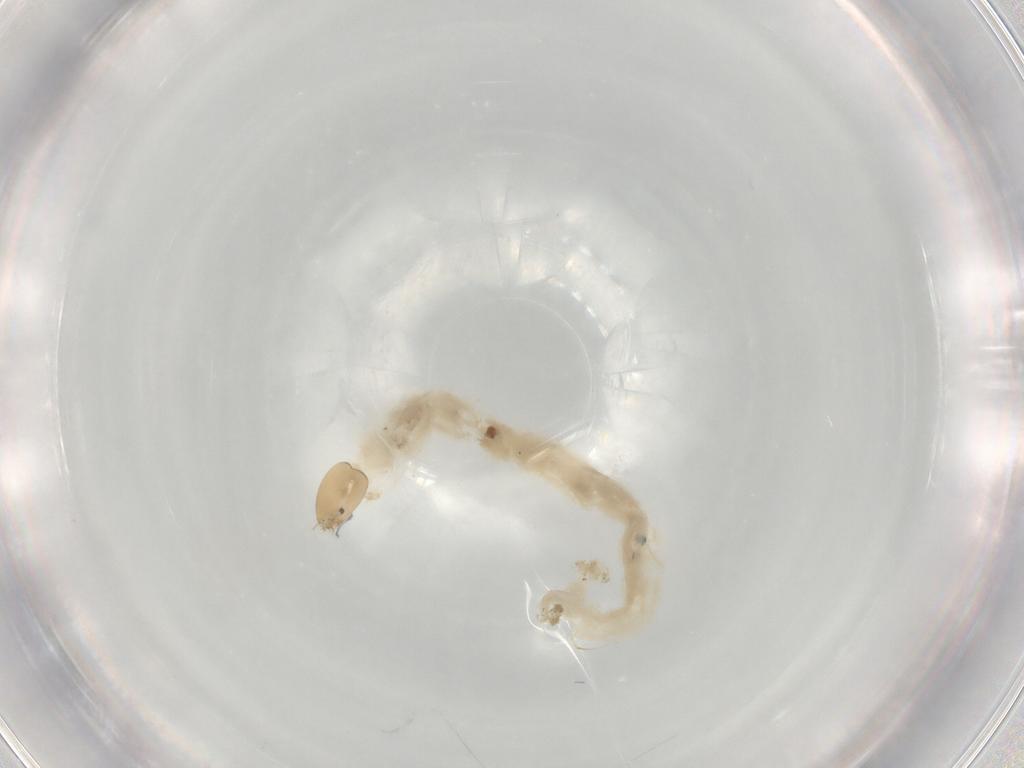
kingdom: Animalia
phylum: Arthropoda
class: Insecta
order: Diptera
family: Chironomidae
